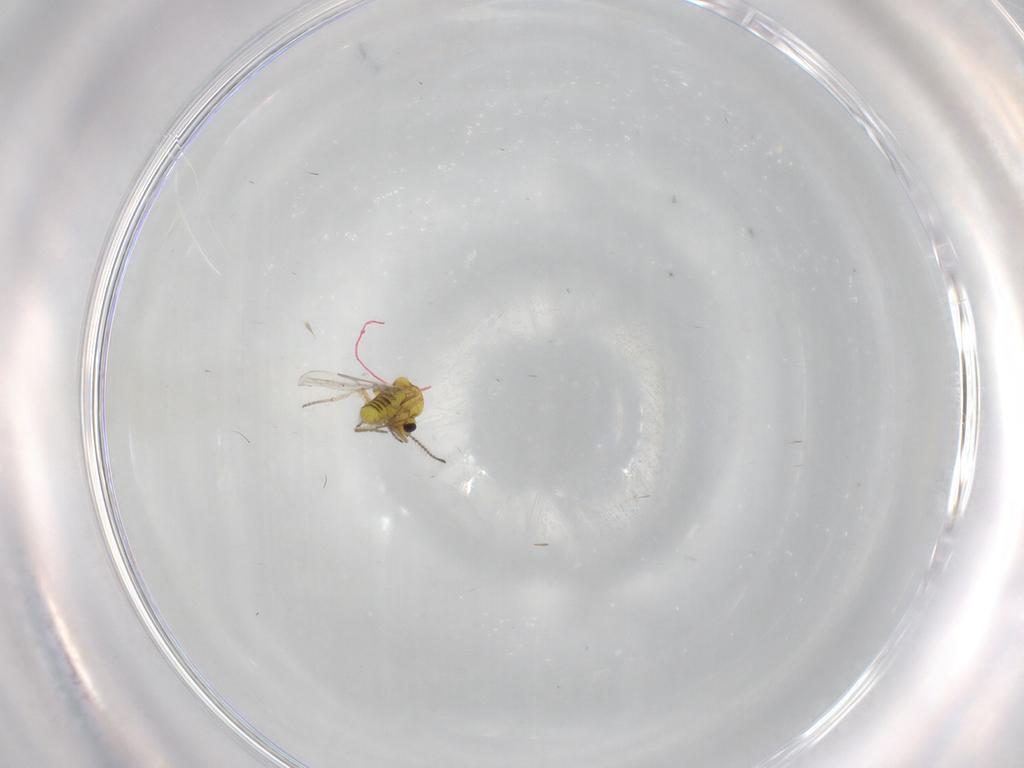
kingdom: Animalia
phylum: Arthropoda
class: Insecta
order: Diptera
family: Ceratopogonidae
